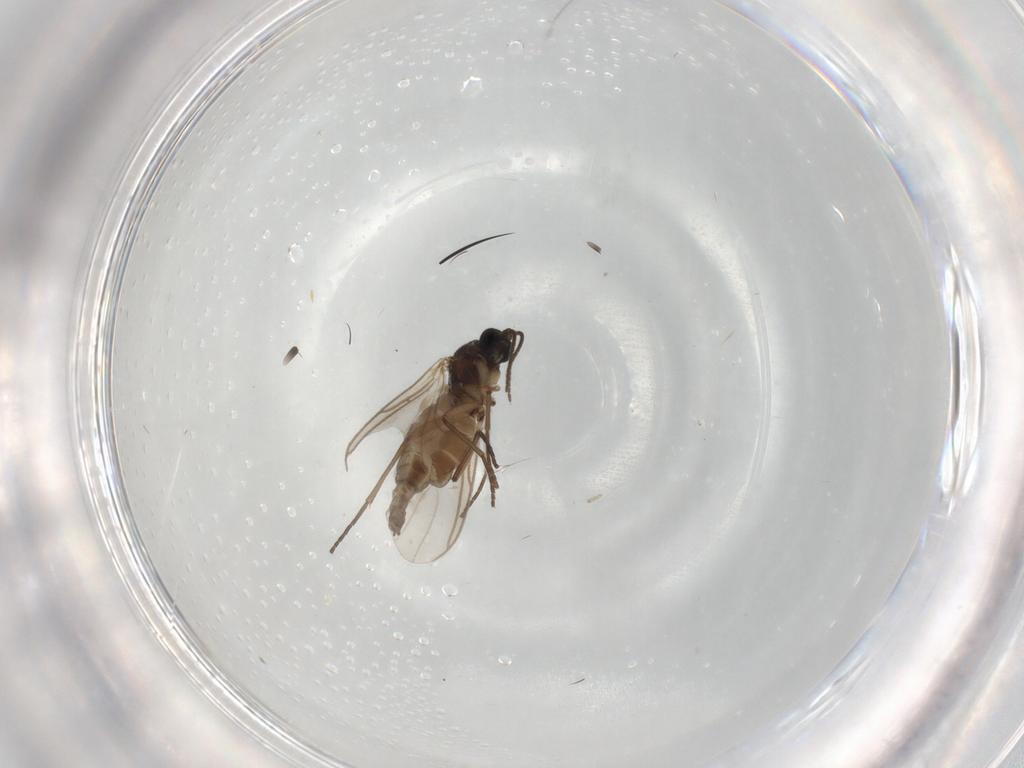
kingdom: Animalia
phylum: Arthropoda
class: Insecta
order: Diptera
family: Sciaridae
